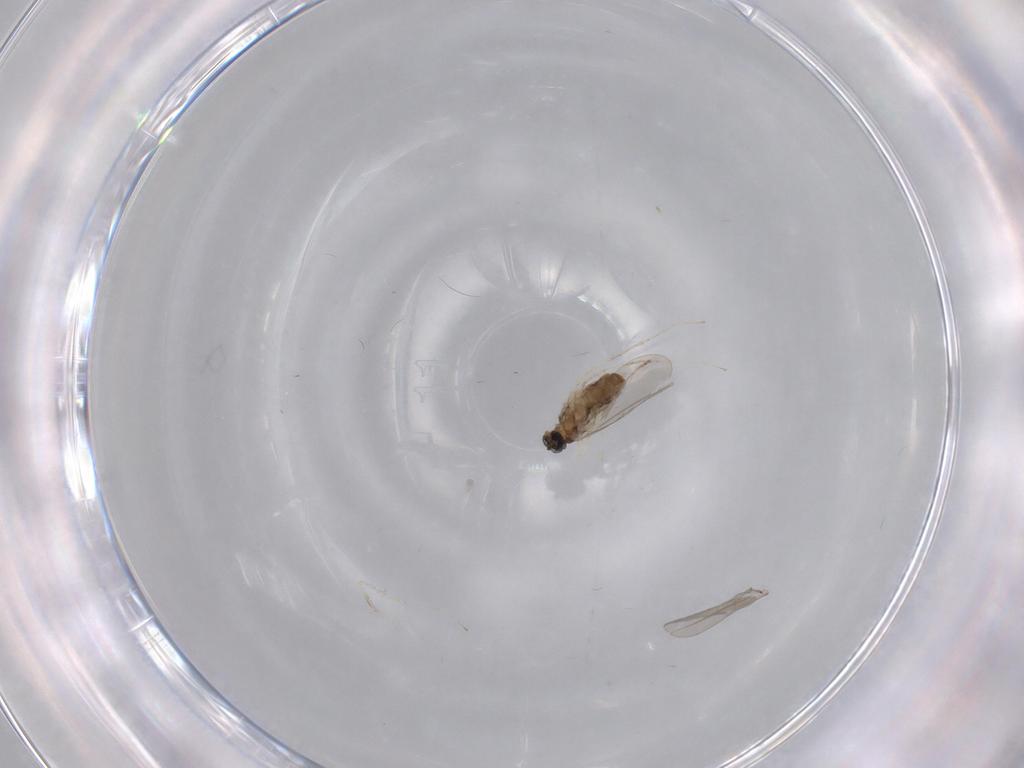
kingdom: Animalia
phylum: Arthropoda
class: Insecta
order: Diptera
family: Cecidomyiidae
